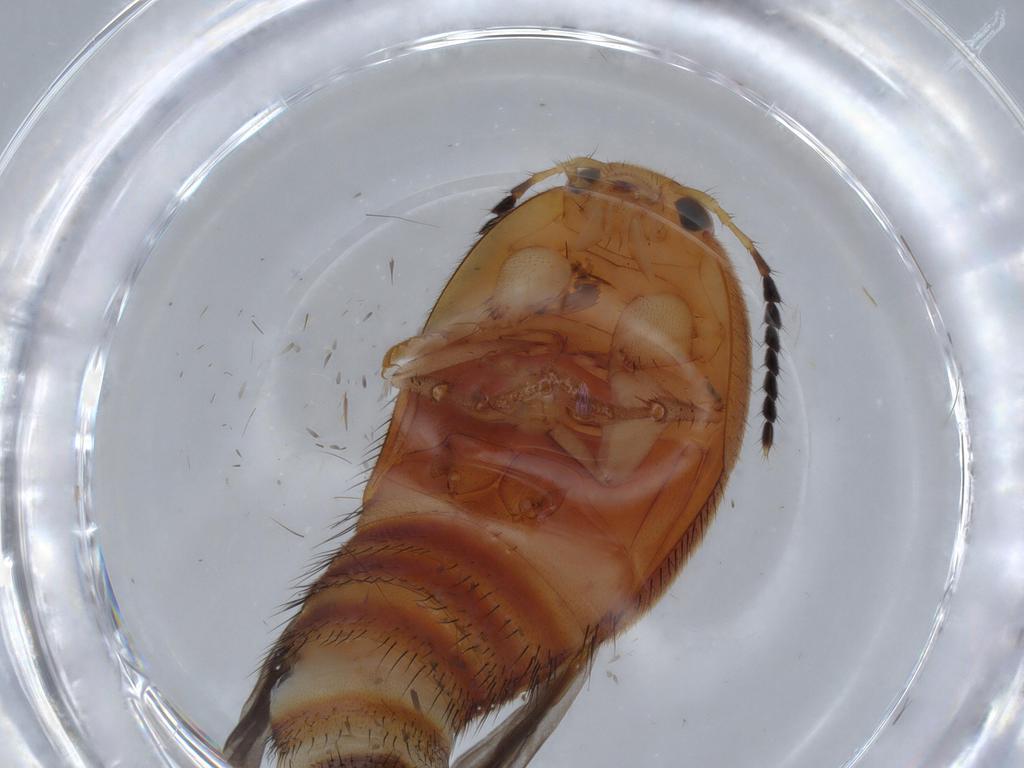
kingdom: Animalia
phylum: Arthropoda
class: Insecta
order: Coleoptera
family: Staphylinidae
